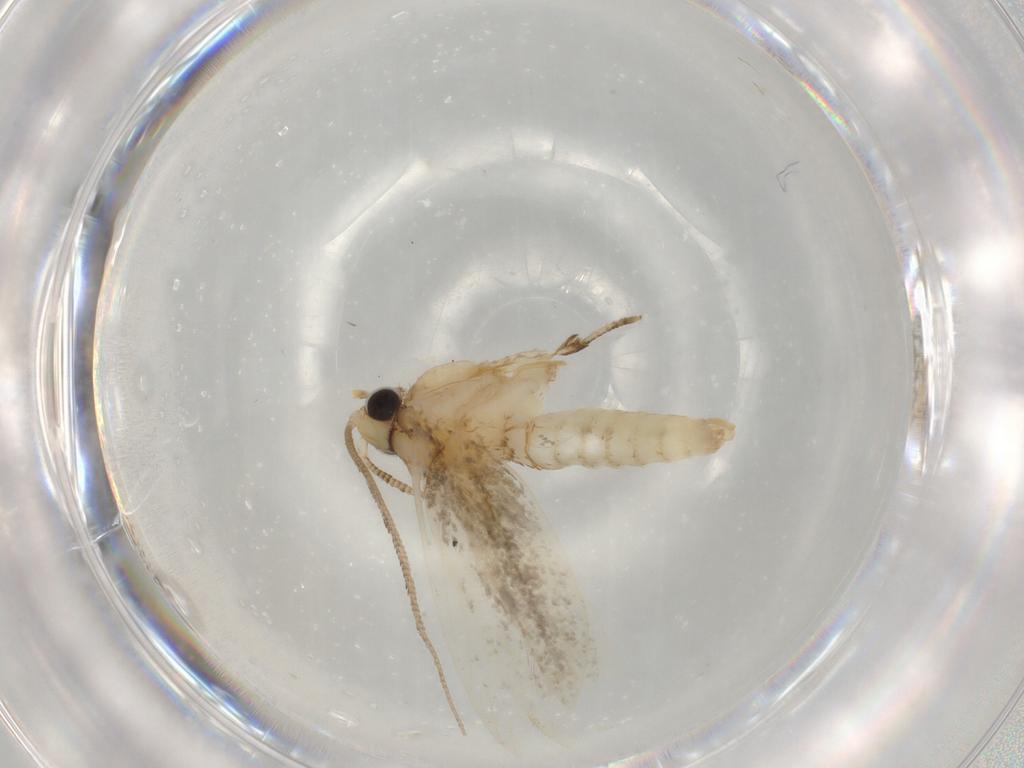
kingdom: Animalia
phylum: Arthropoda
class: Insecta
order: Lepidoptera
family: Tineidae
